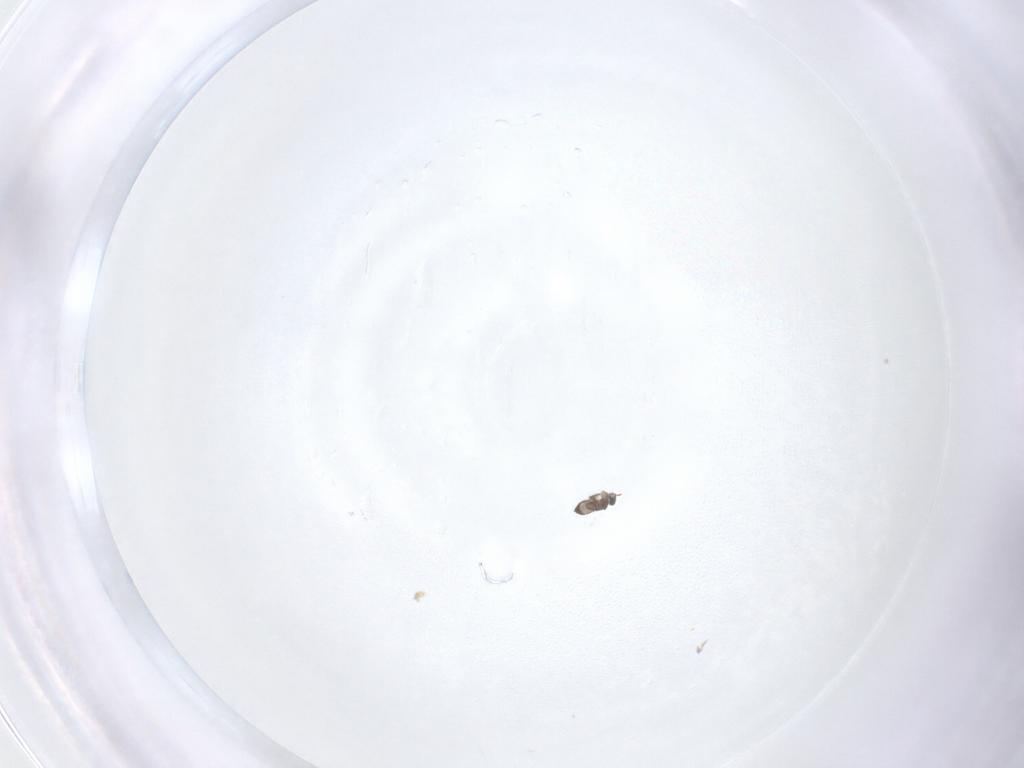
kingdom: Animalia
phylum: Arthropoda
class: Insecta
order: Hymenoptera
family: Mymaridae
